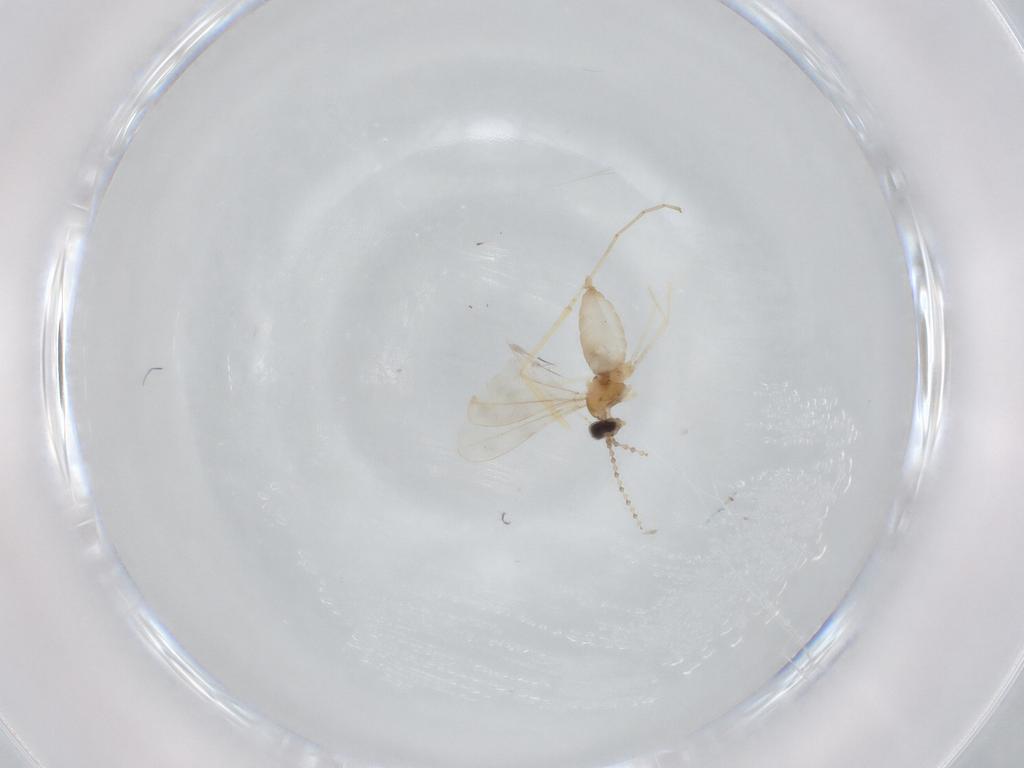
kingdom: Animalia
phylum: Arthropoda
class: Insecta
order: Diptera
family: Cecidomyiidae
